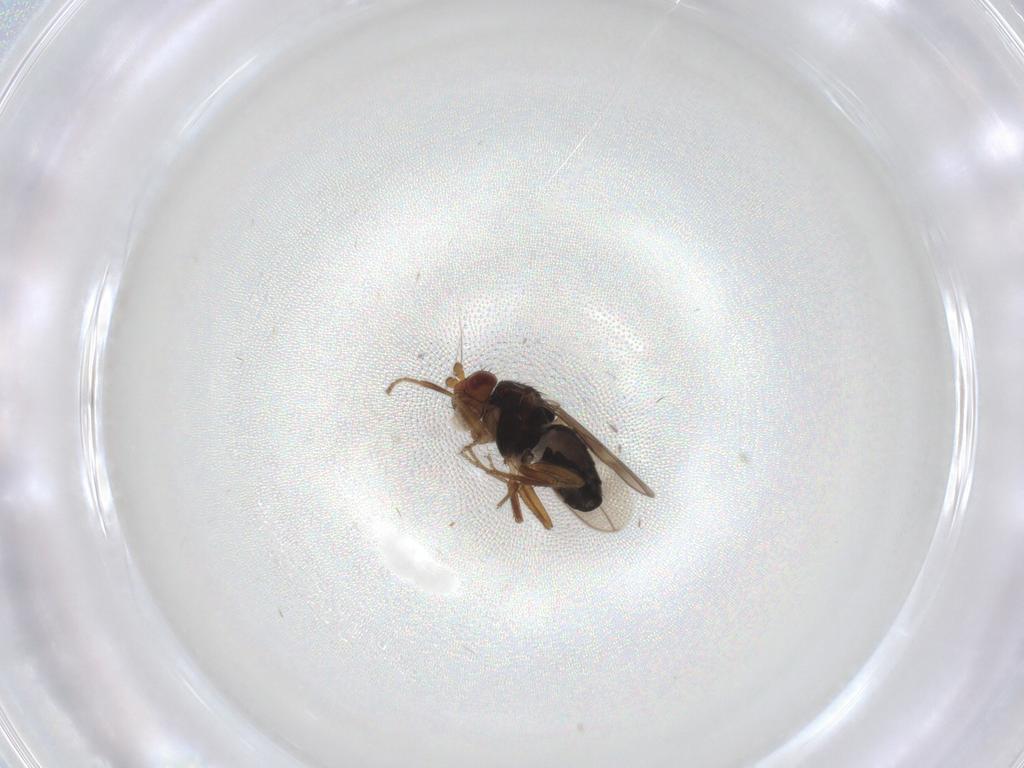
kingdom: Animalia
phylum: Arthropoda
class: Insecta
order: Diptera
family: Sphaeroceridae
